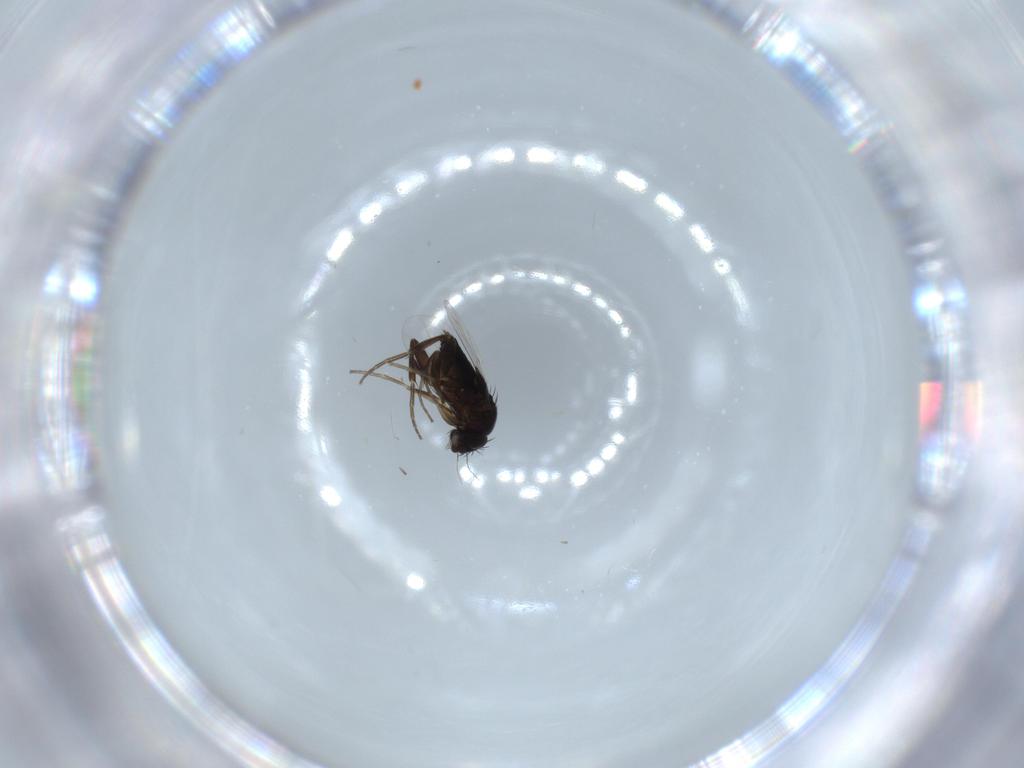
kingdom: Animalia
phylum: Arthropoda
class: Insecta
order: Diptera
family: Phoridae
